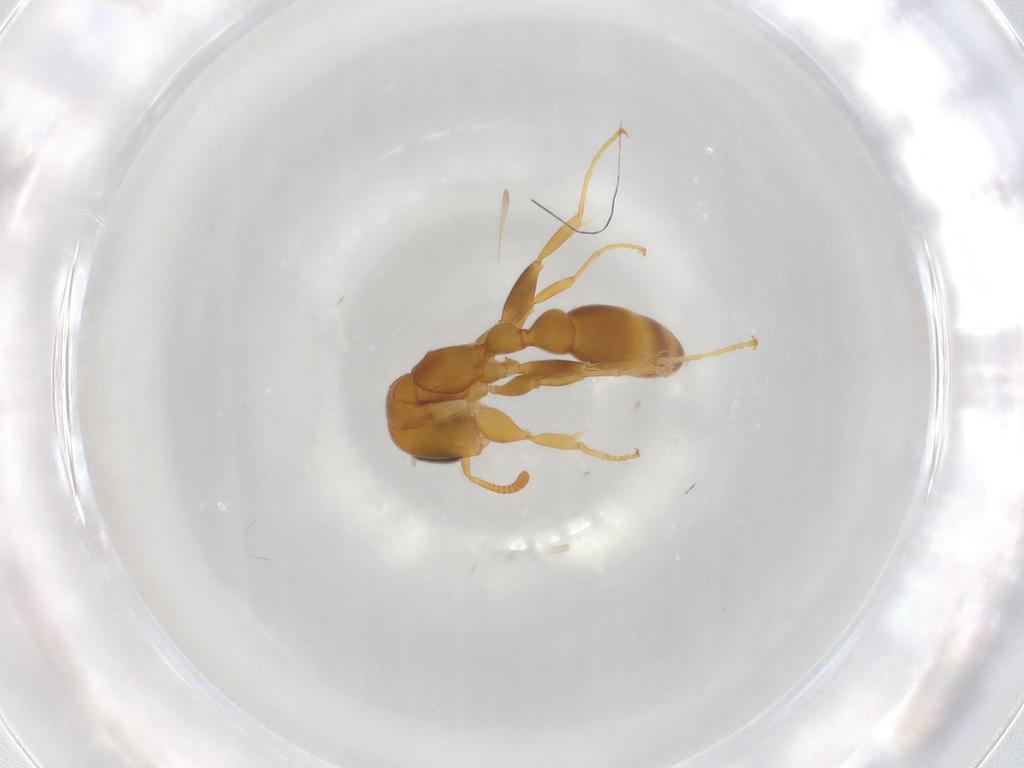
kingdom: Animalia
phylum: Arthropoda
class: Insecta
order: Hymenoptera
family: Formicidae
